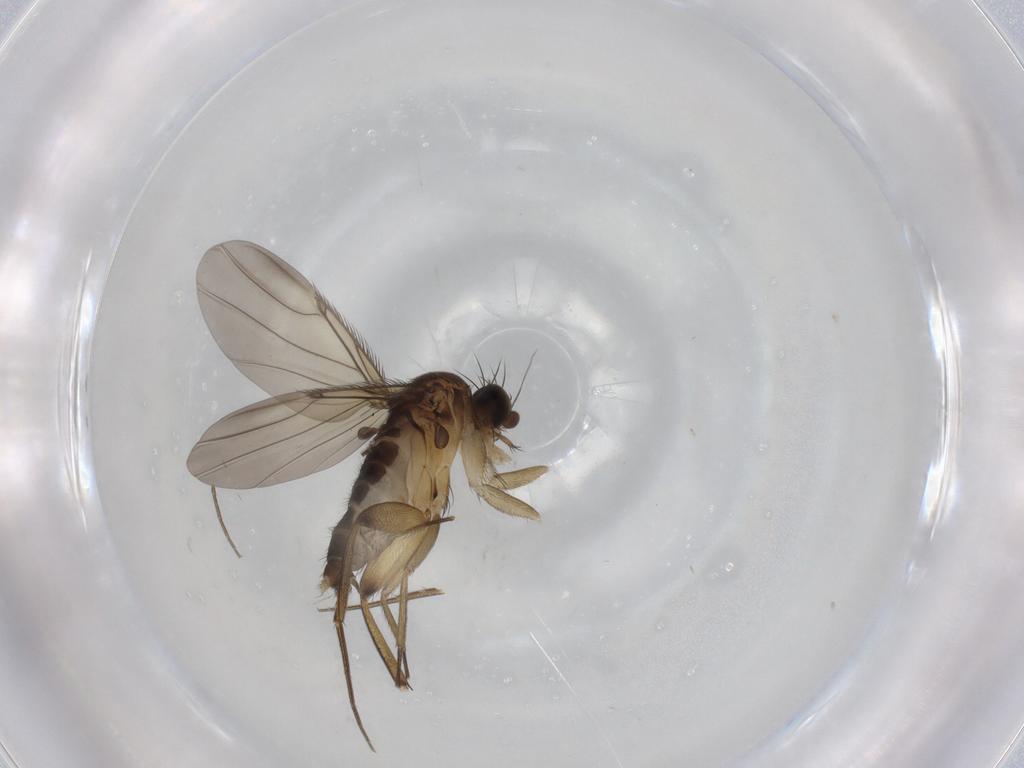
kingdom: Animalia
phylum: Arthropoda
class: Insecta
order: Diptera
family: Phoridae
